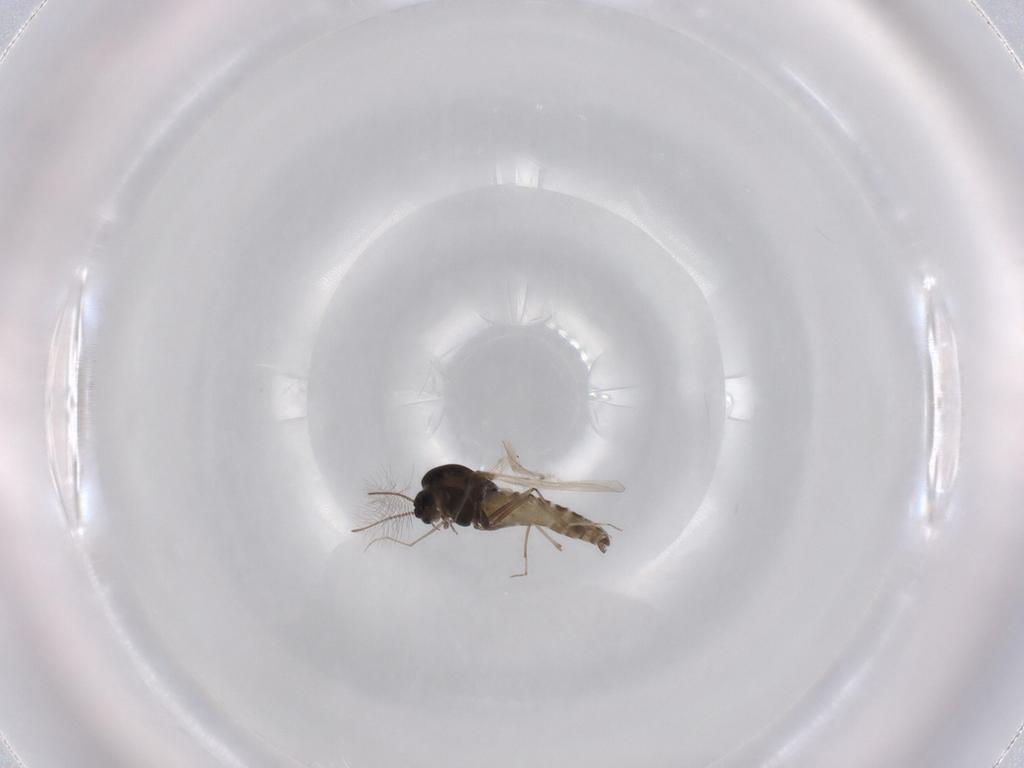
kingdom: Animalia
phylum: Arthropoda
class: Insecta
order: Diptera
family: Chironomidae
